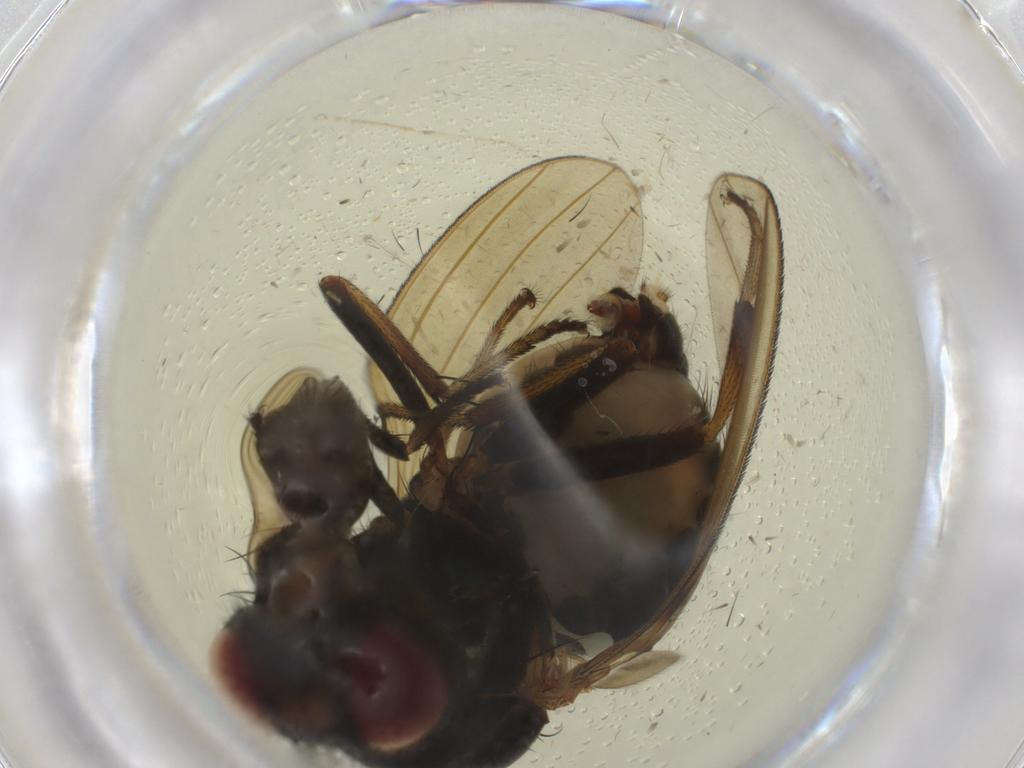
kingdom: Animalia
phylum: Arthropoda
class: Insecta
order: Diptera
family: Lauxaniidae
